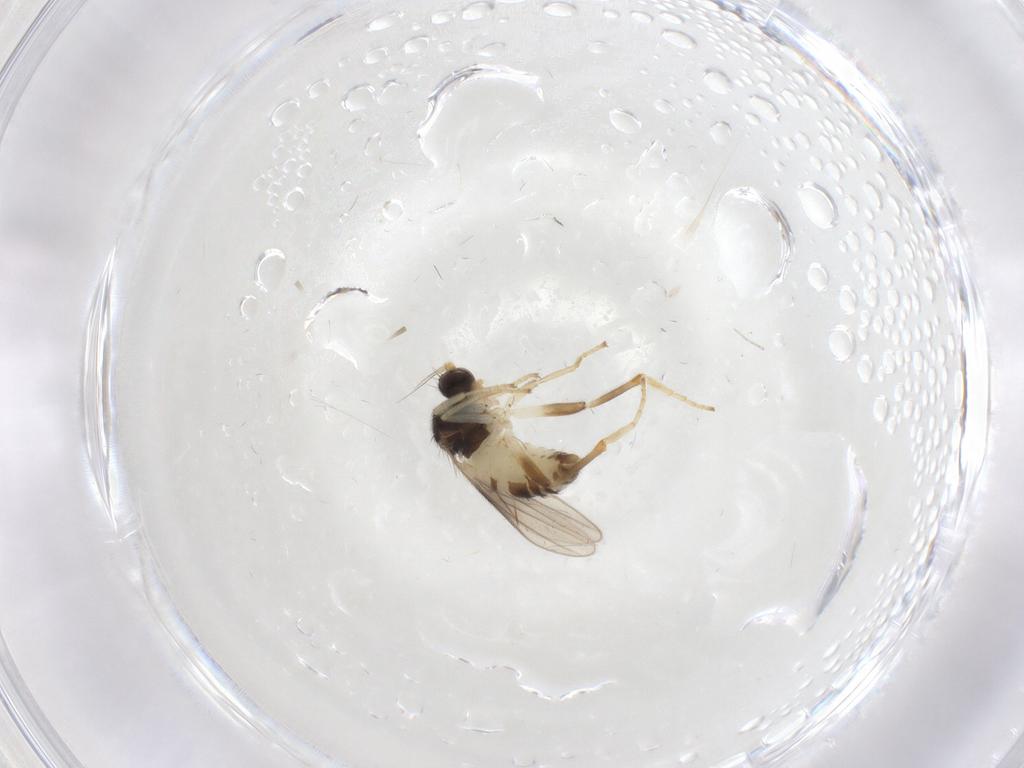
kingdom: Animalia
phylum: Arthropoda
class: Insecta
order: Diptera
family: Hybotidae
